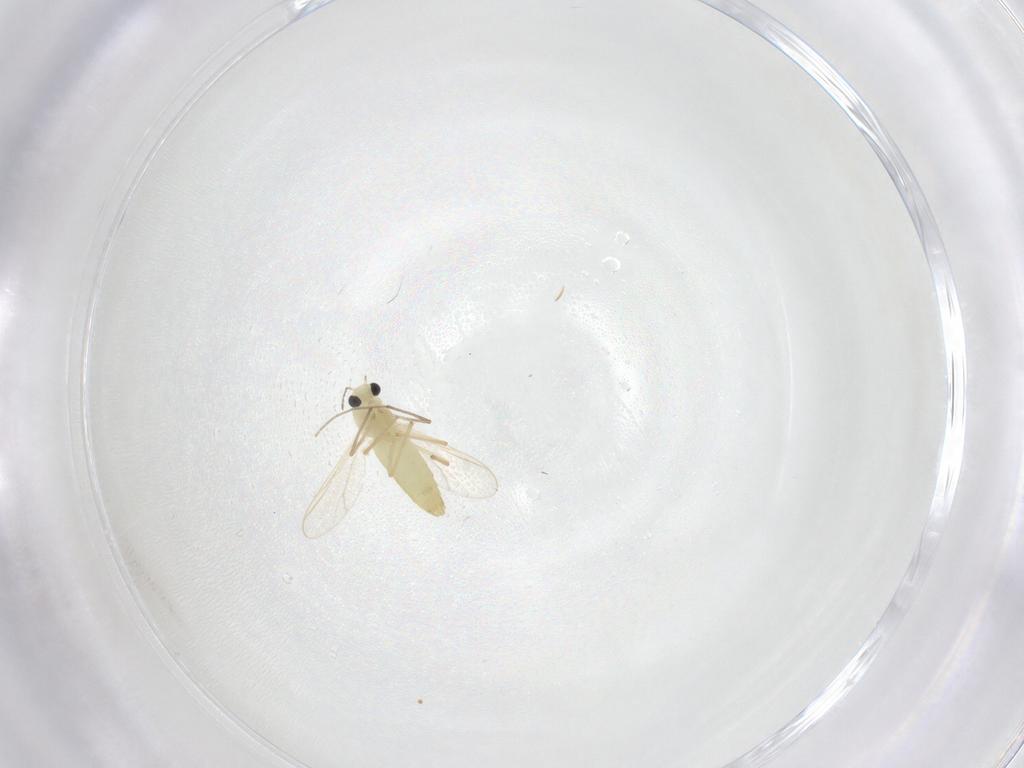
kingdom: Animalia
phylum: Arthropoda
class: Insecta
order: Diptera
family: Chironomidae
